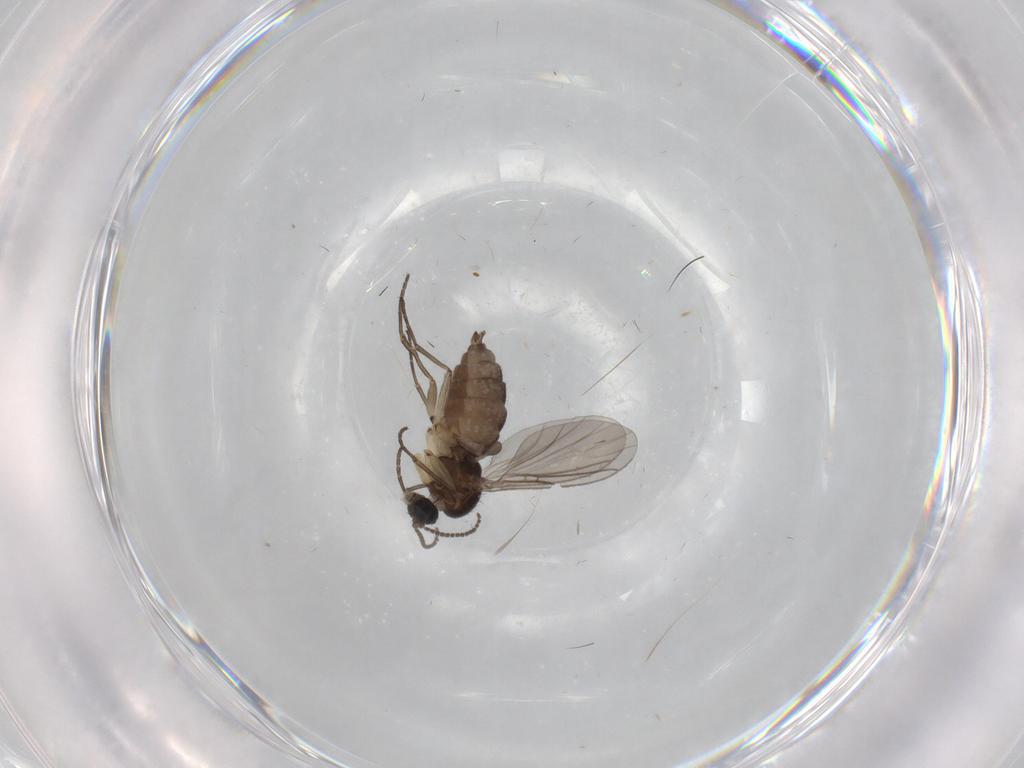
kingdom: Animalia
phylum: Arthropoda
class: Insecta
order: Diptera
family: Sciaridae
